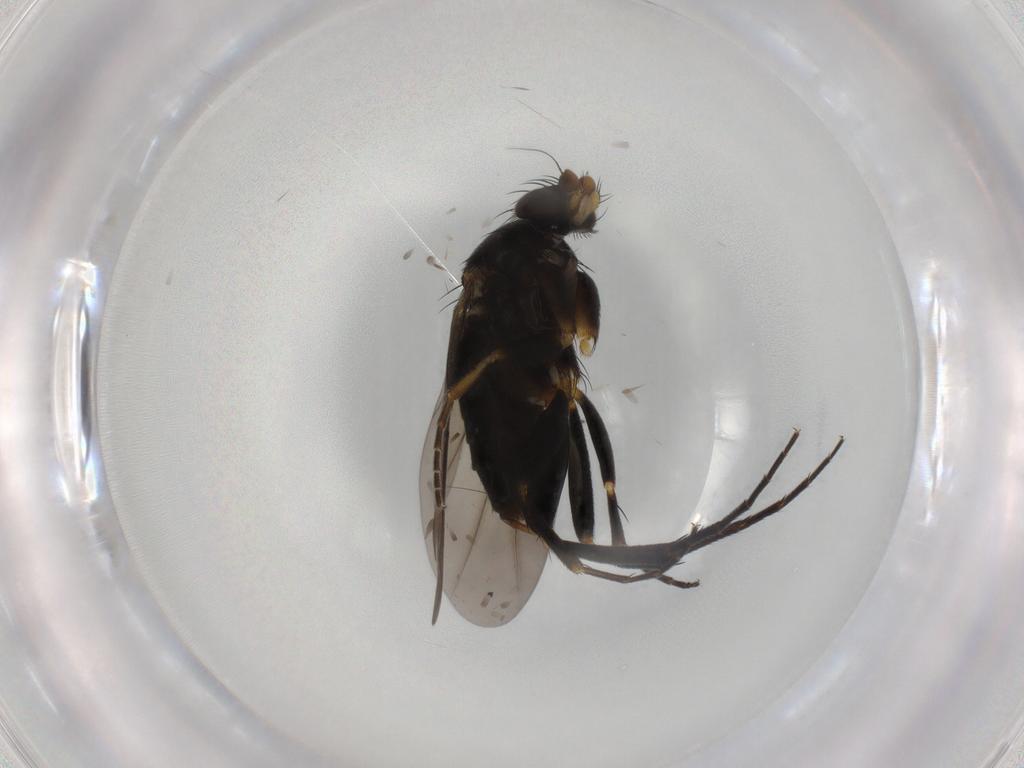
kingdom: Animalia
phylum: Arthropoda
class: Insecta
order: Diptera
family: Phoridae
